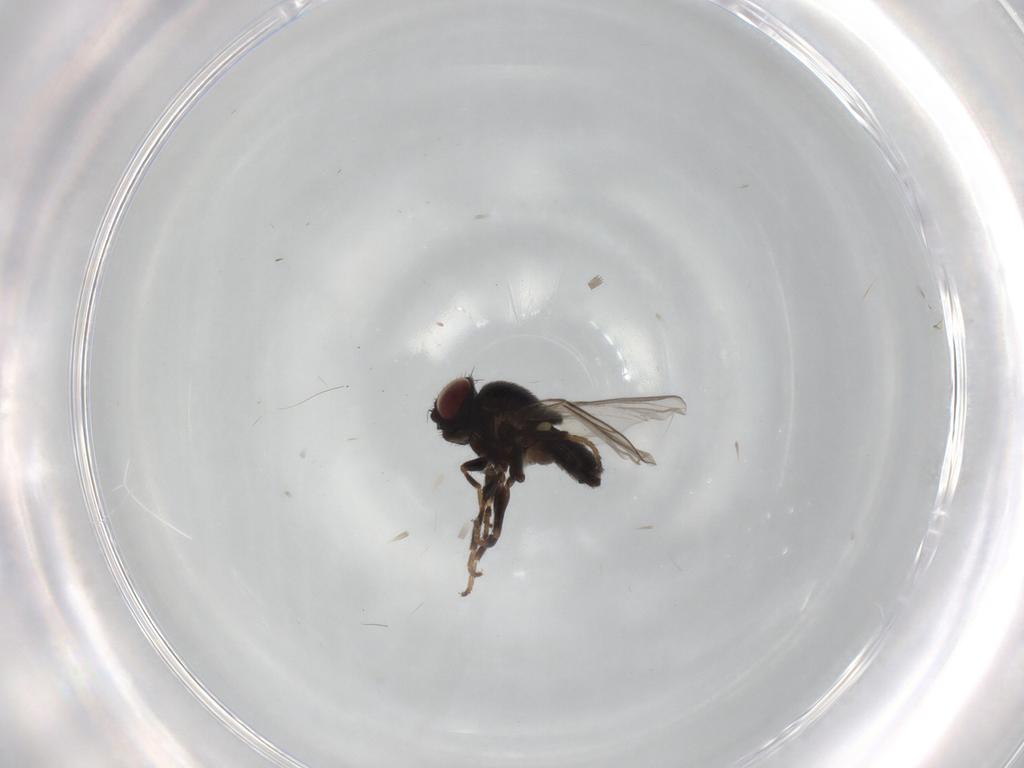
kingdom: Animalia
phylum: Arthropoda
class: Insecta
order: Diptera
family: Chloropidae
